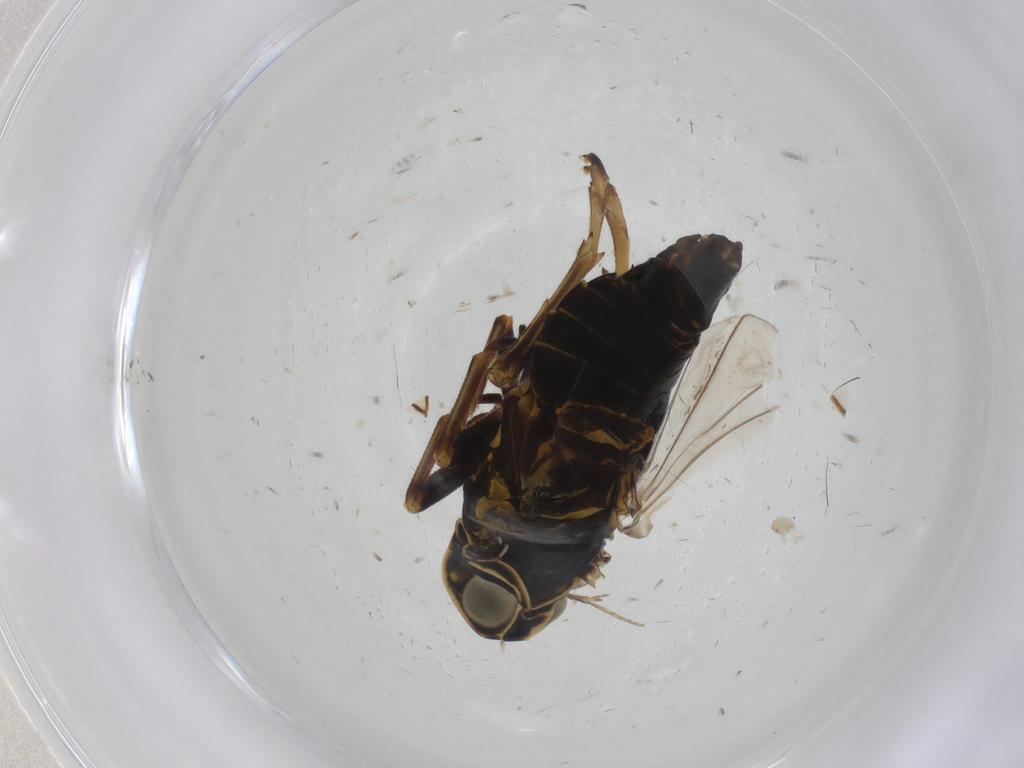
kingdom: Animalia
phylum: Arthropoda
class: Insecta
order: Hemiptera
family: Cixiidae
